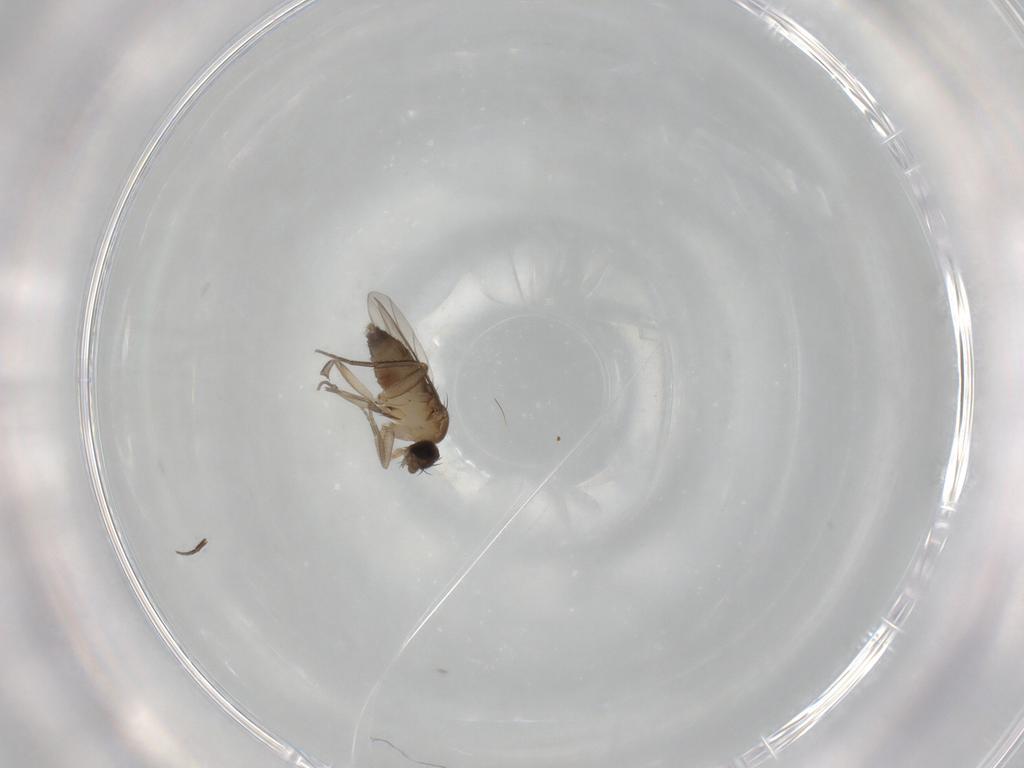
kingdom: Animalia
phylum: Arthropoda
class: Insecta
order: Diptera
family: Phoridae
